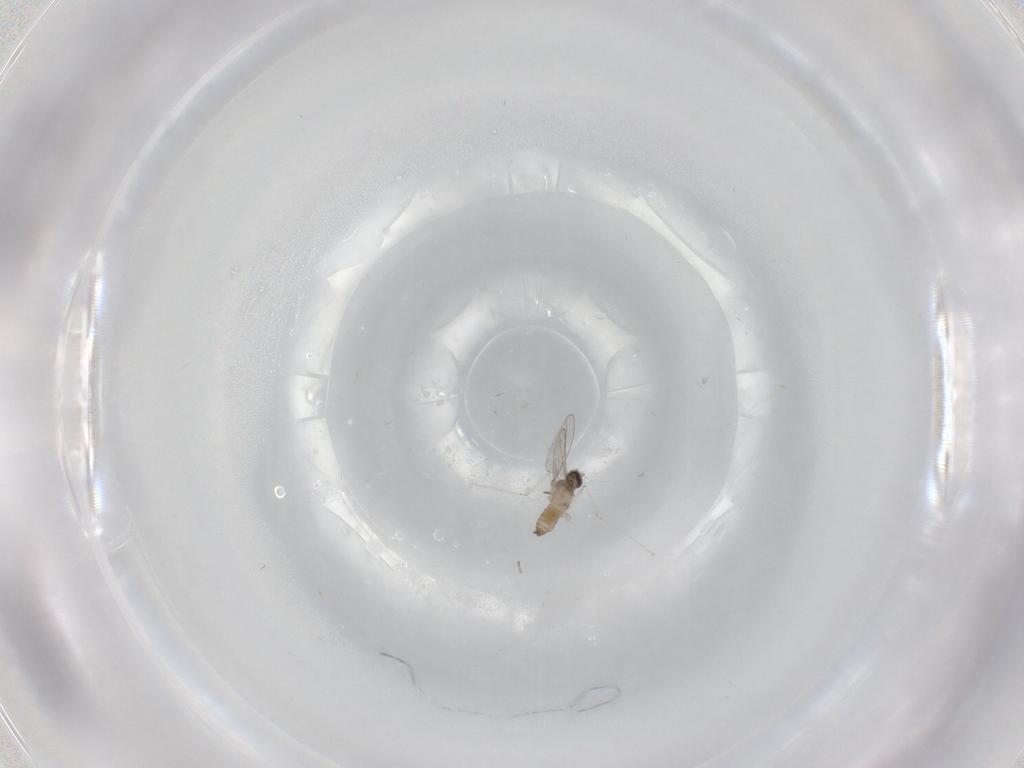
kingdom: Animalia
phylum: Arthropoda
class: Insecta
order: Diptera
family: Cecidomyiidae
